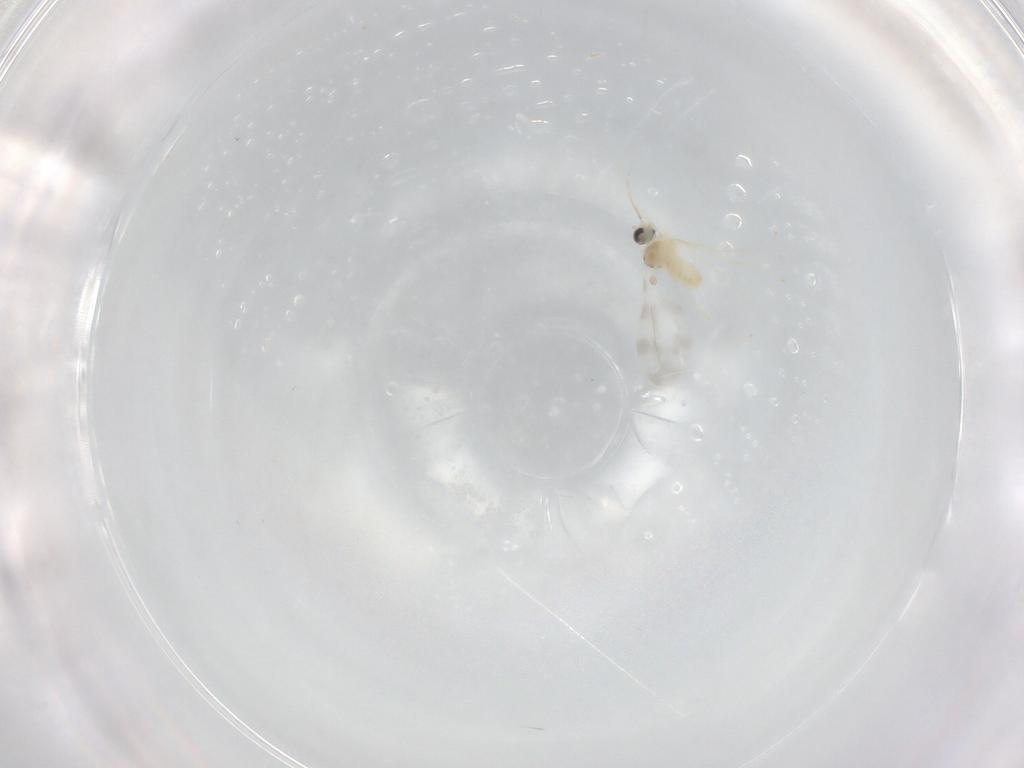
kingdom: Animalia
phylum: Arthropoda
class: Insecta
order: Diptera
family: Cecidomyiidae
